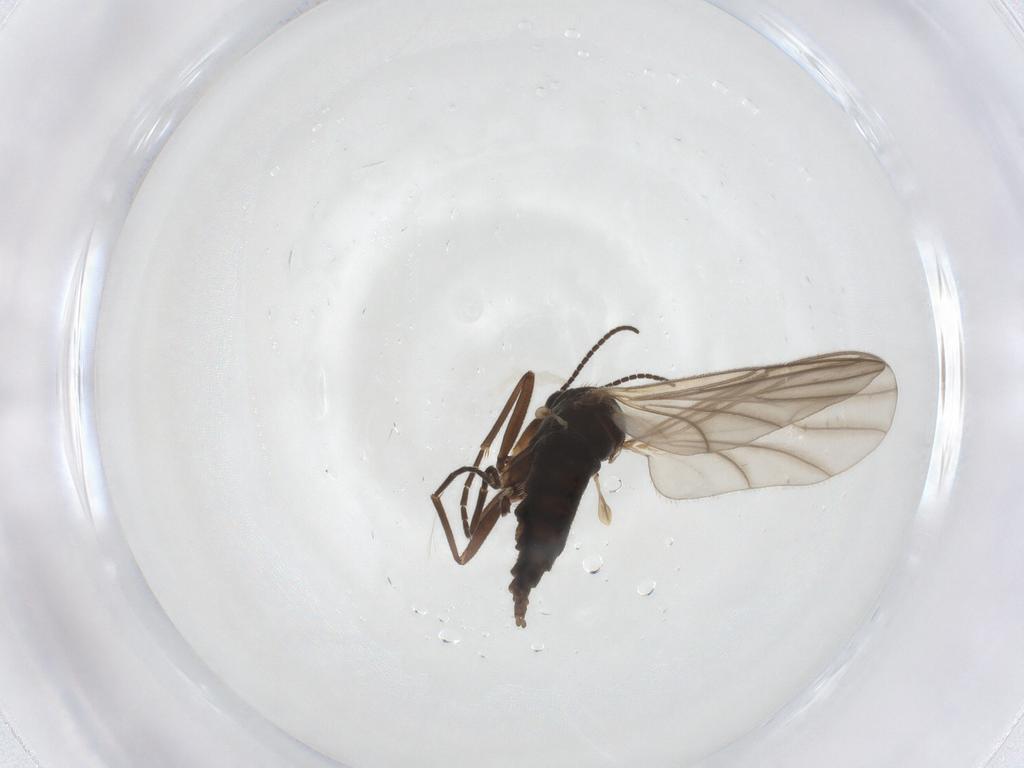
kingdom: Animalia
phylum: Arthropoda
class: Insecta
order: Diptera
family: Sciaridae
